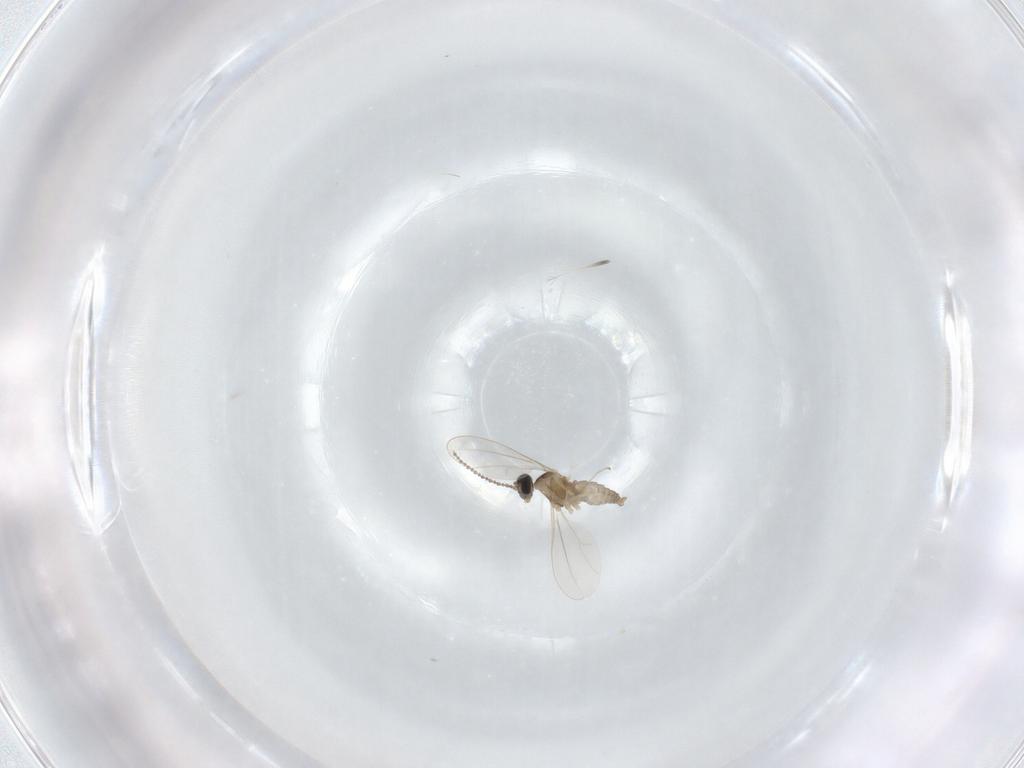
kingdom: Animalia
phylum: Arthropoda
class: Insecta
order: Diptera
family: Cecidomyiidae
